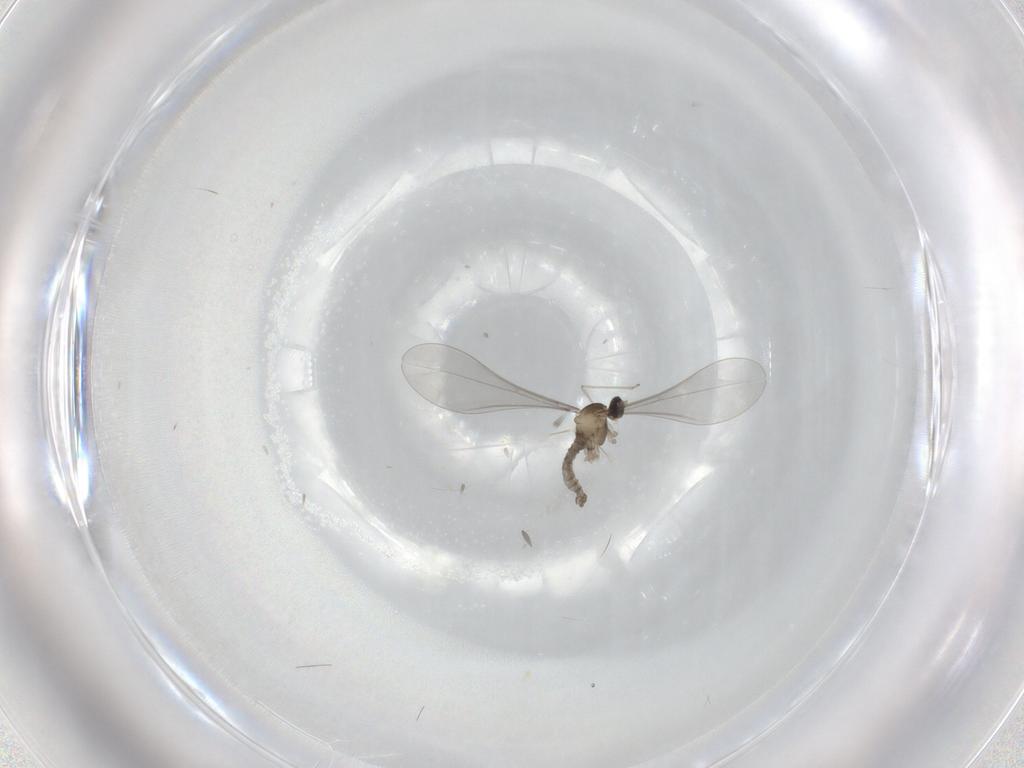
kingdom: Animalia
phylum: Arthropoda
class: Insecta
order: Diptera
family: Cecidomyiidae
